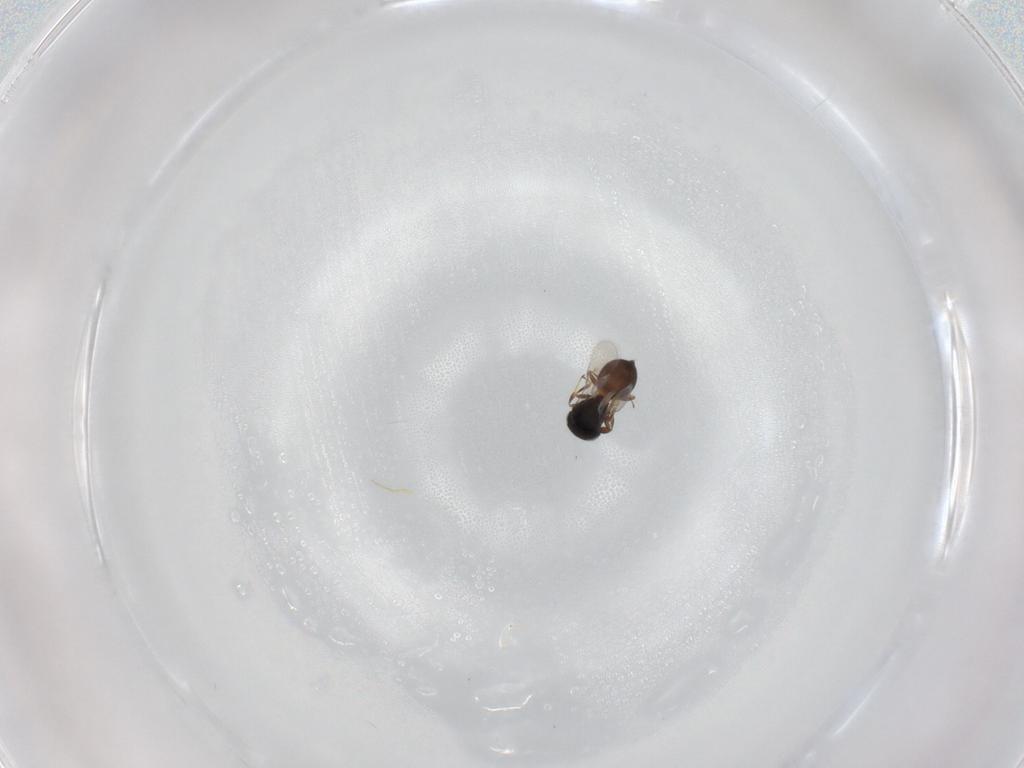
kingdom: Animalia
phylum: Arthropoda
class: Insecta
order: Hymenoptera
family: Scelionidae
